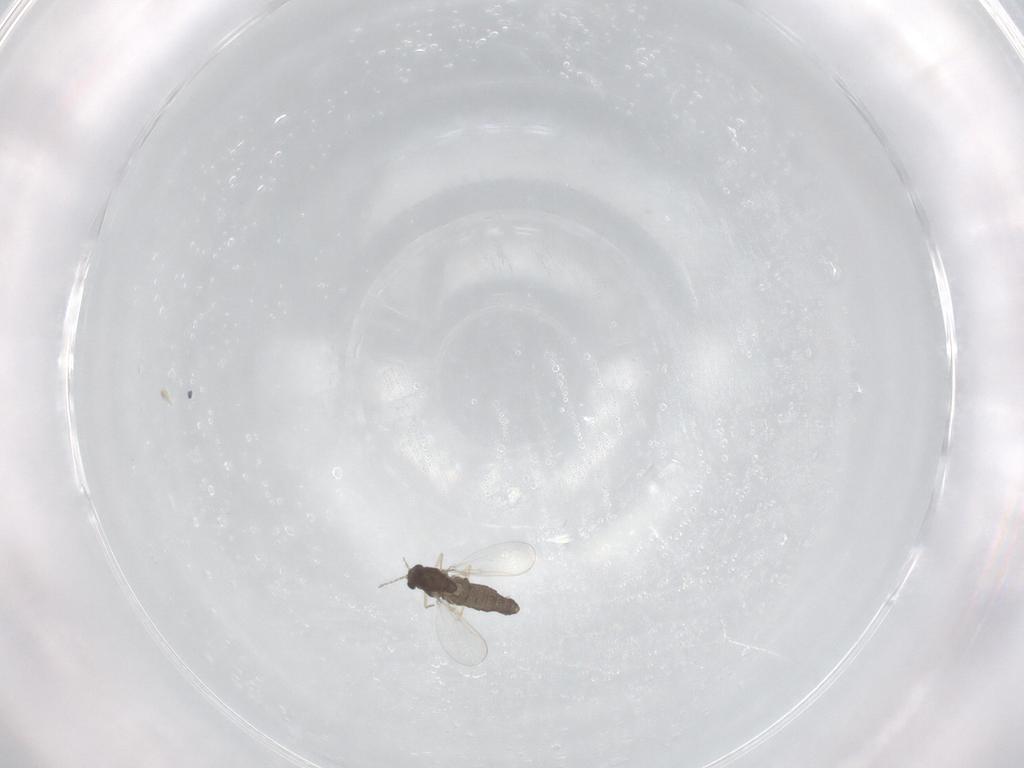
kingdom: Animalia
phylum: Arthropoda
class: Insecta
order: Diptera
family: Chironomidae
